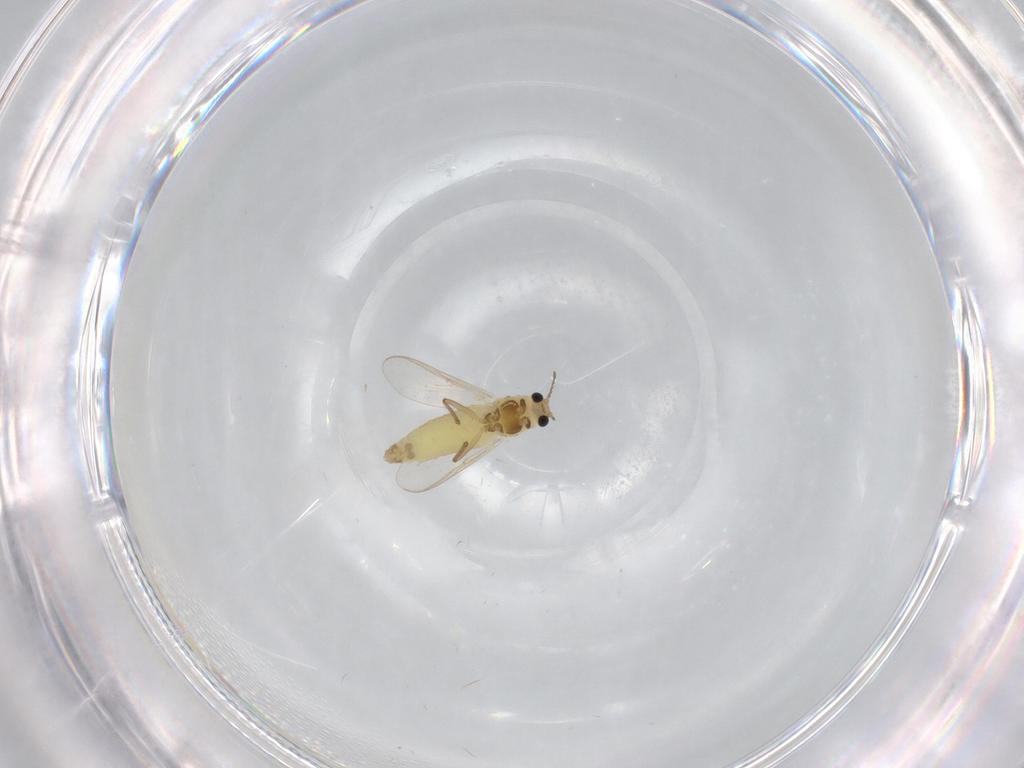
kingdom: Animalia
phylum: Arthropoda
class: Insecta
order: Diptera
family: Chironomidae
